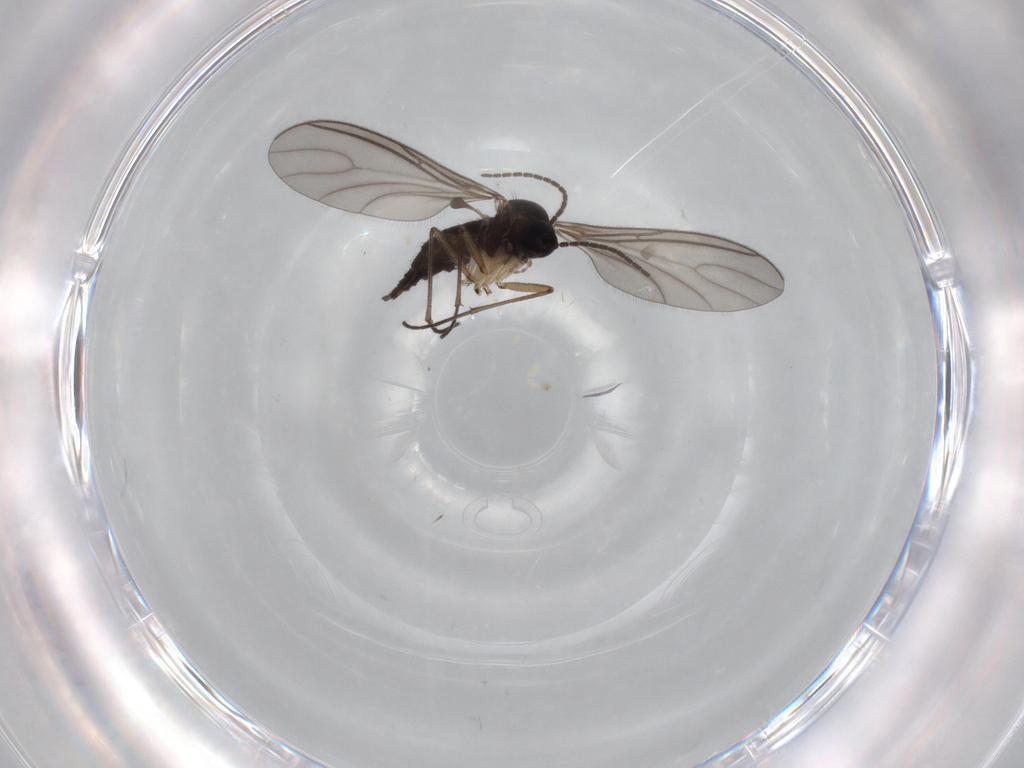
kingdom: Animalia
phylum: Arthropoda
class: Insecta
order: Diptera
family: Sciaridae
